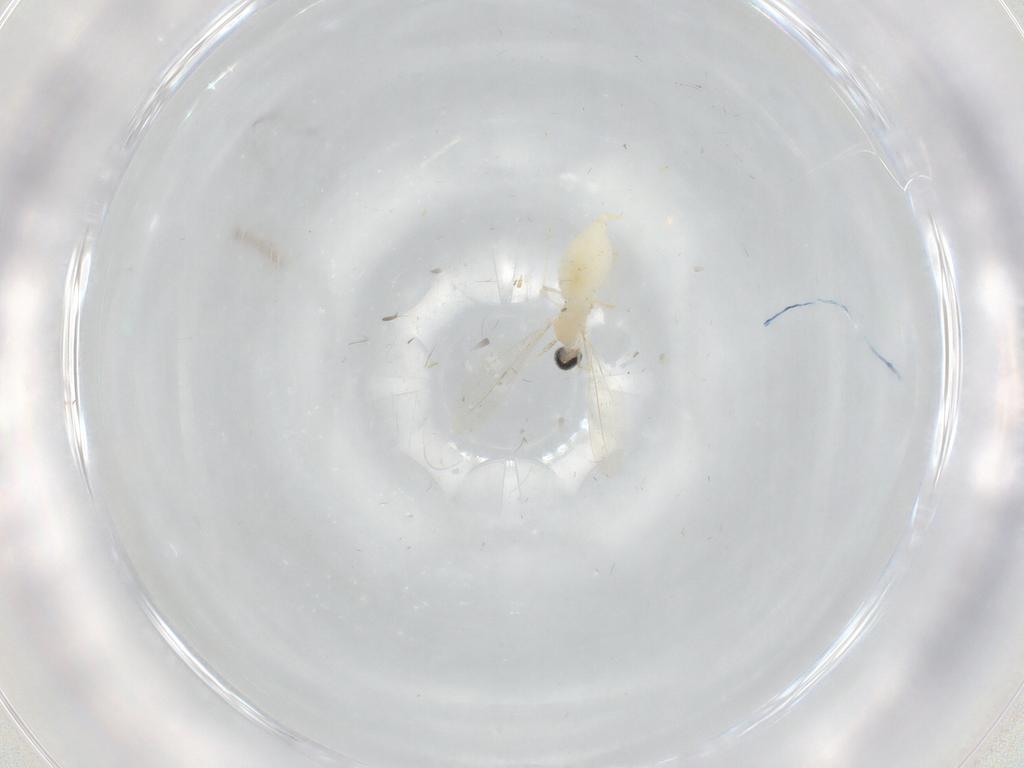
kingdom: Animalia
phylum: Arthropoda
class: Insecta
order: Diptera
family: Cecidomyiidae
